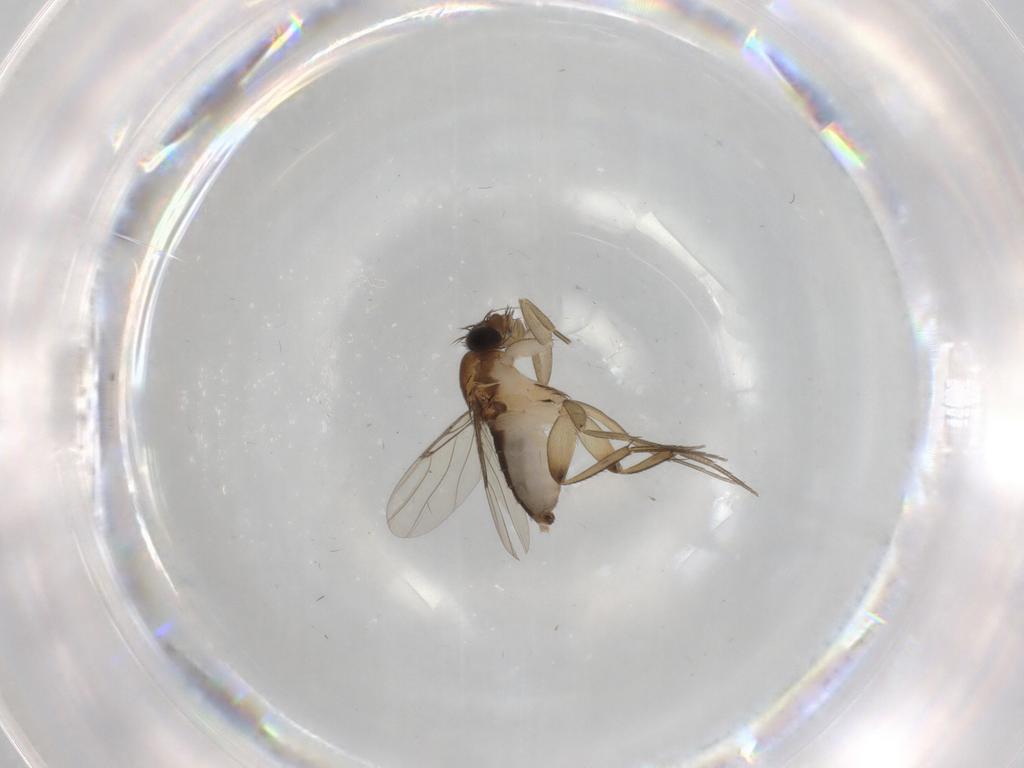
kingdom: Animalia
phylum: Arthropoda
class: Insecta
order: Diptera
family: Phoridae
